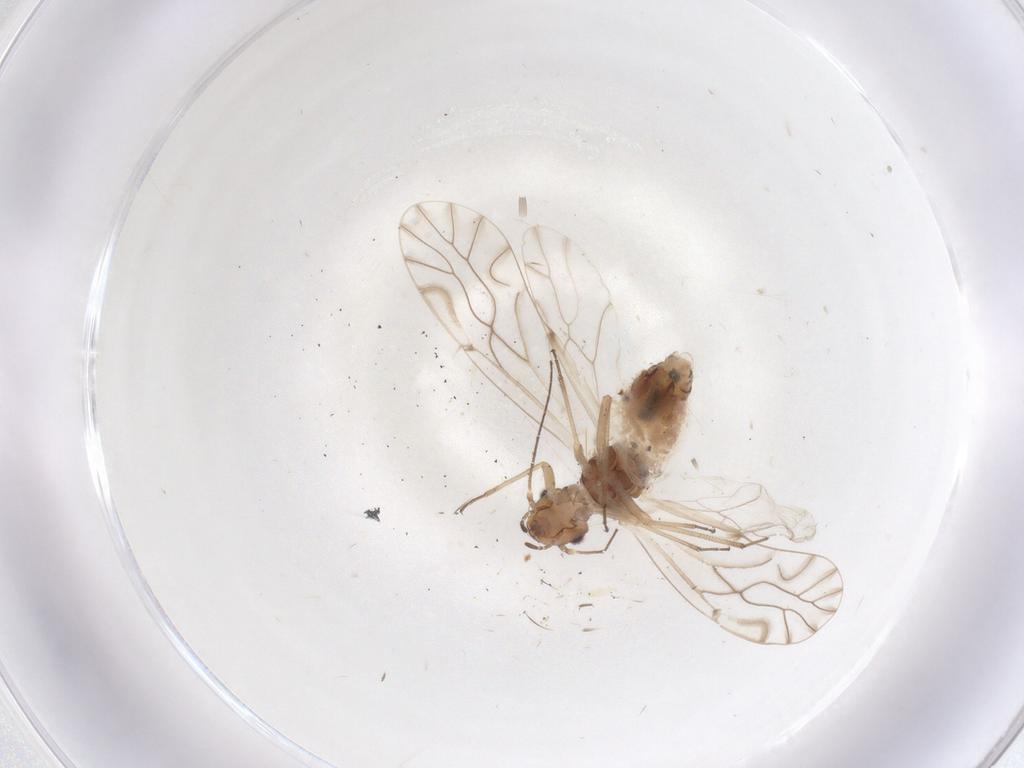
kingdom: Animalia
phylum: Arthropoda
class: Insecta
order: Psocodea
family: Lachesillidae
